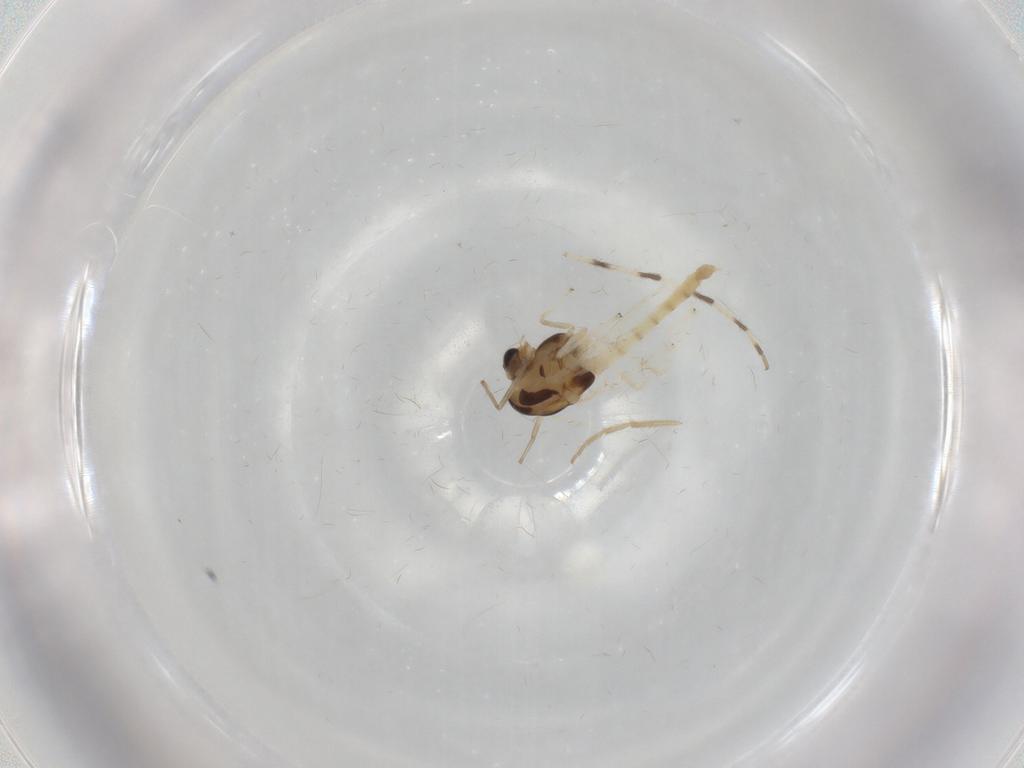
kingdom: Animalia
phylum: Arthropoda
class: Insecta
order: Diptera
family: Chironomidae
